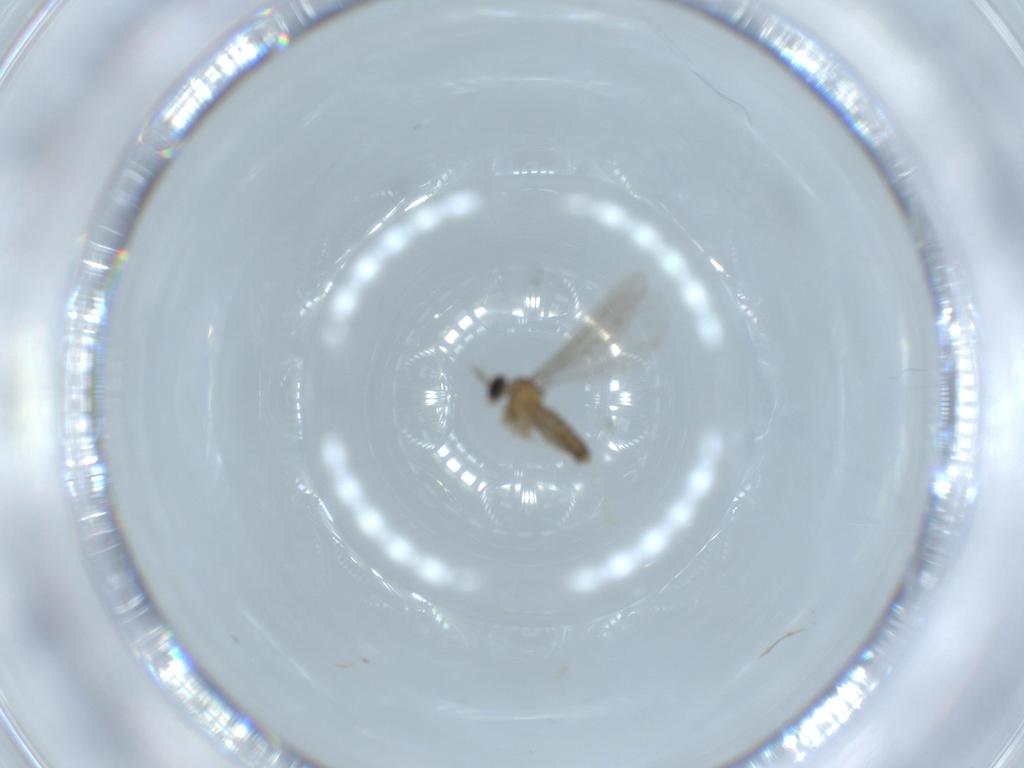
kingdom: Animalia
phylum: Arthropoda
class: Insecta
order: Diptera
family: Cecidomyiidae
